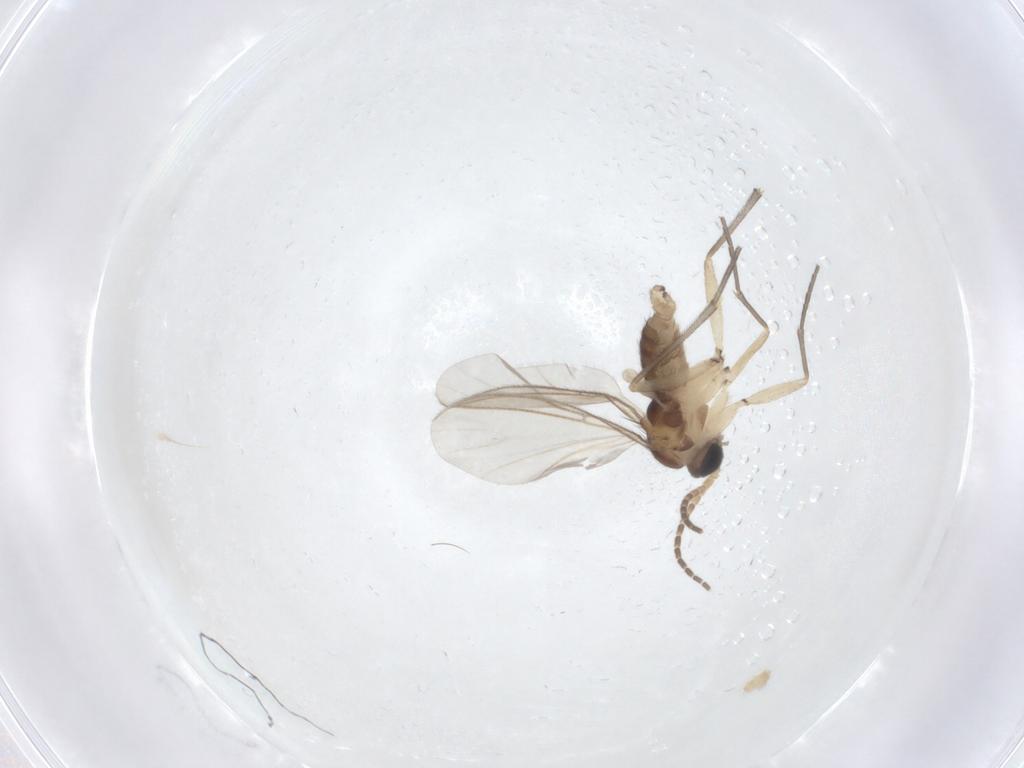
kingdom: Animalia
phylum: Arthropoda
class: Insecta
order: Diptera
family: Sciaridae
